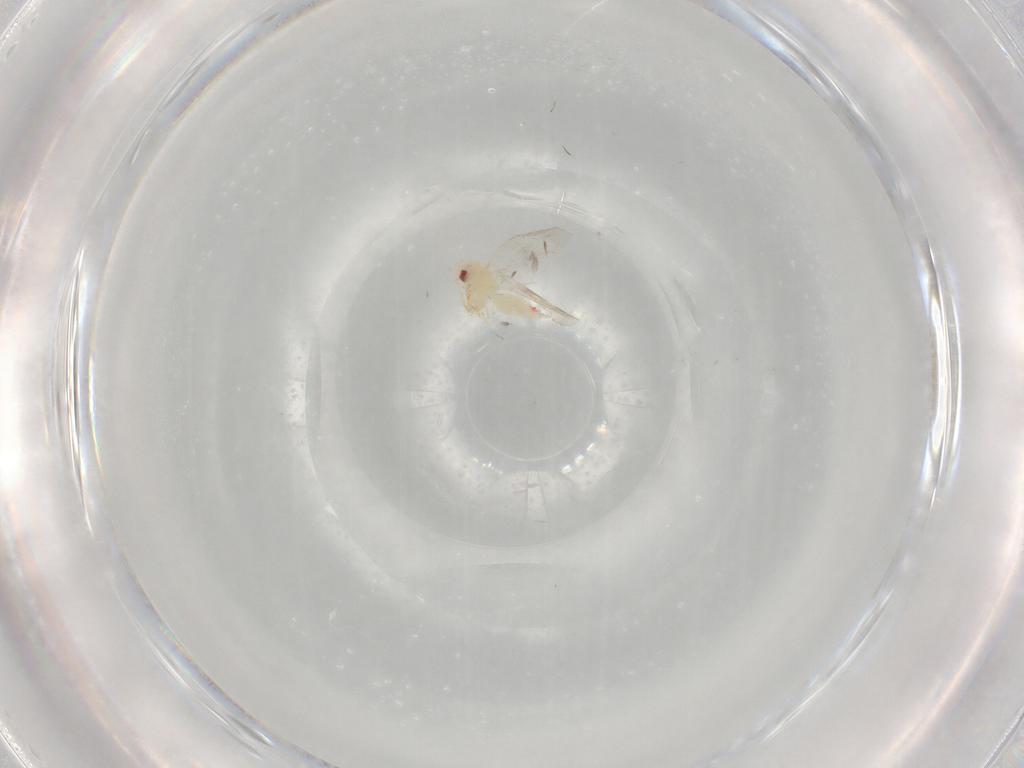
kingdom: Animalia
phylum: Arthropoda
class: Insecta
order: Hemiptera
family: Aleyrodidae
